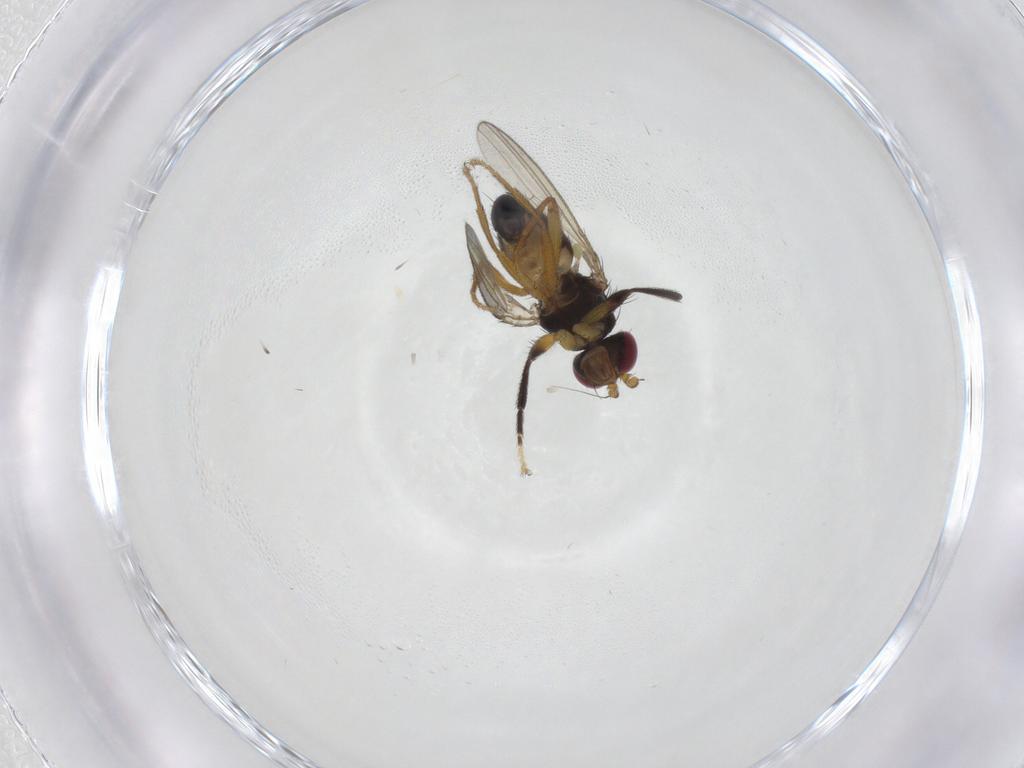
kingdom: Animalia
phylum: Arthropoda
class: Insecta
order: Diptera
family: Cypselosomatidae
